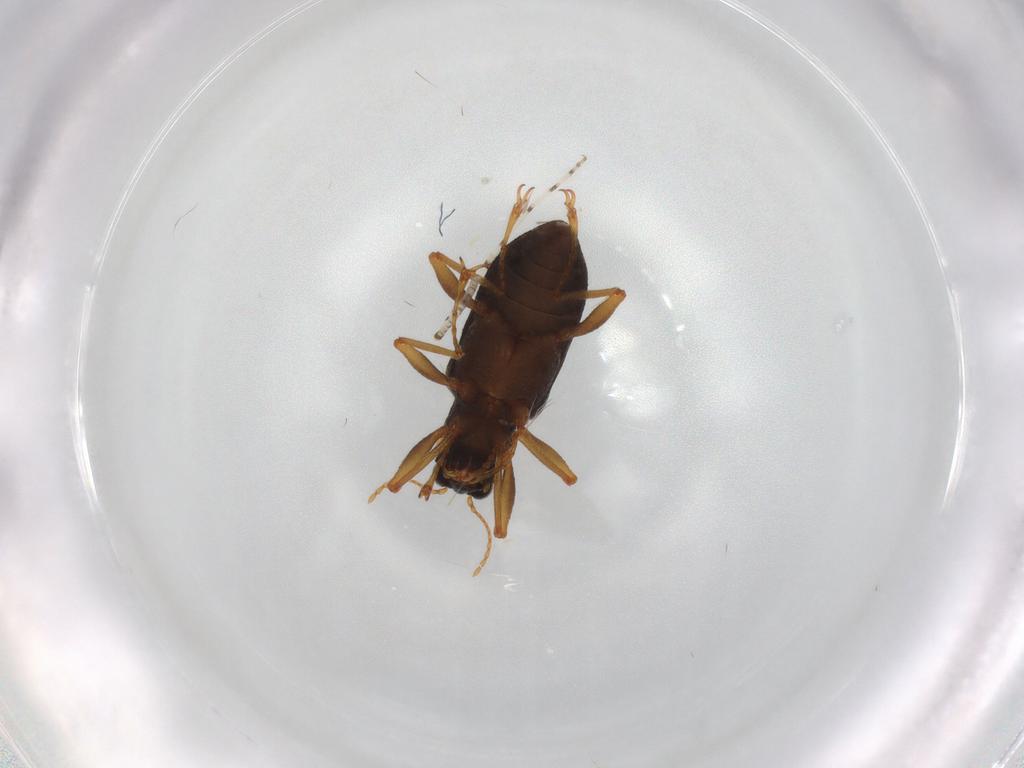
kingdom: Animalia
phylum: Arthropoda
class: Insecta
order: Coleoptera
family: Elmidae
